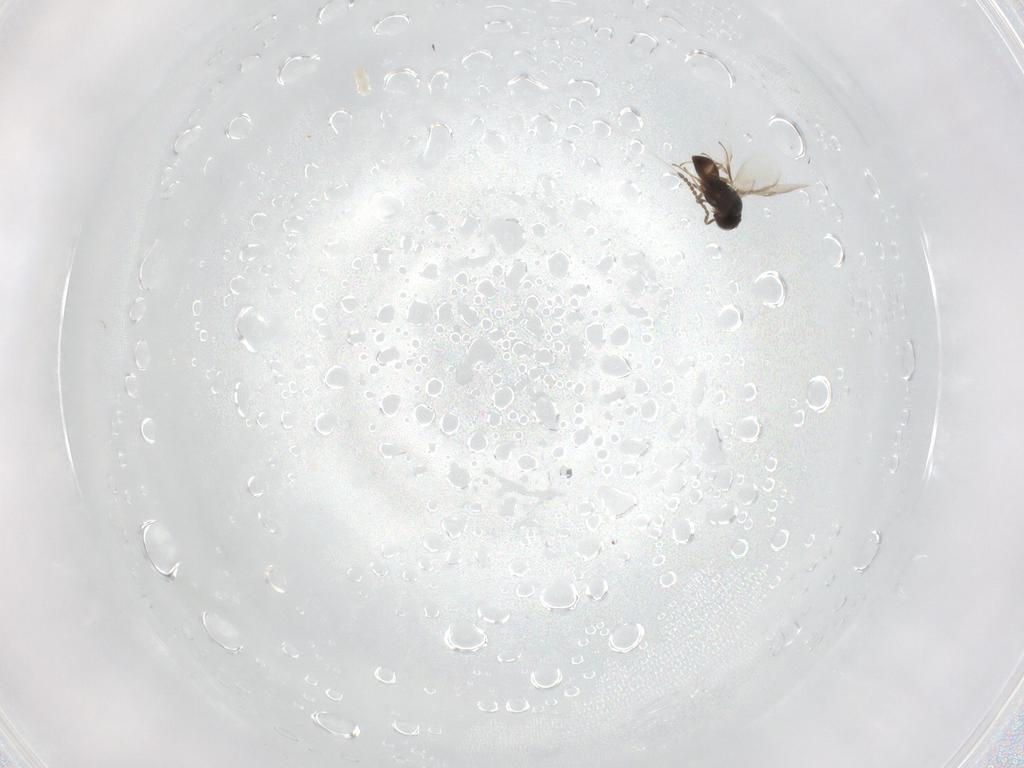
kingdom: Animalia
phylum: Arthropoda
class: Insecta
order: Hymenoptera
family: Scelionidae
